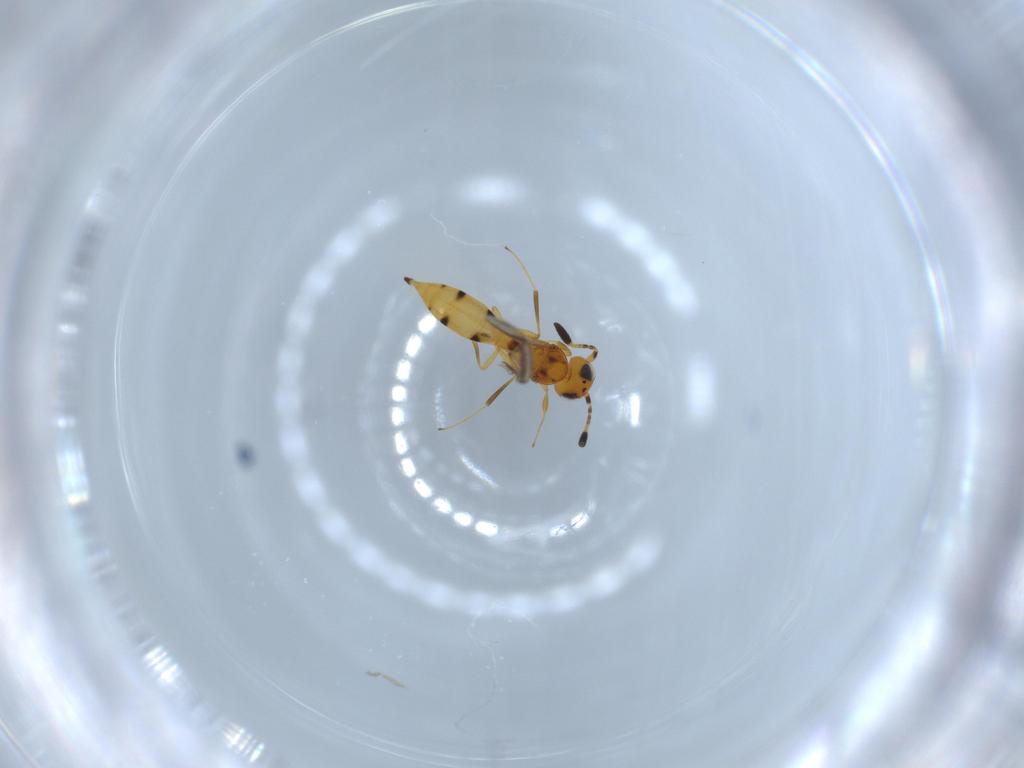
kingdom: Animalia
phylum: Arthropoda
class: Insecta
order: Hymenoptera
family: Scelionidae
